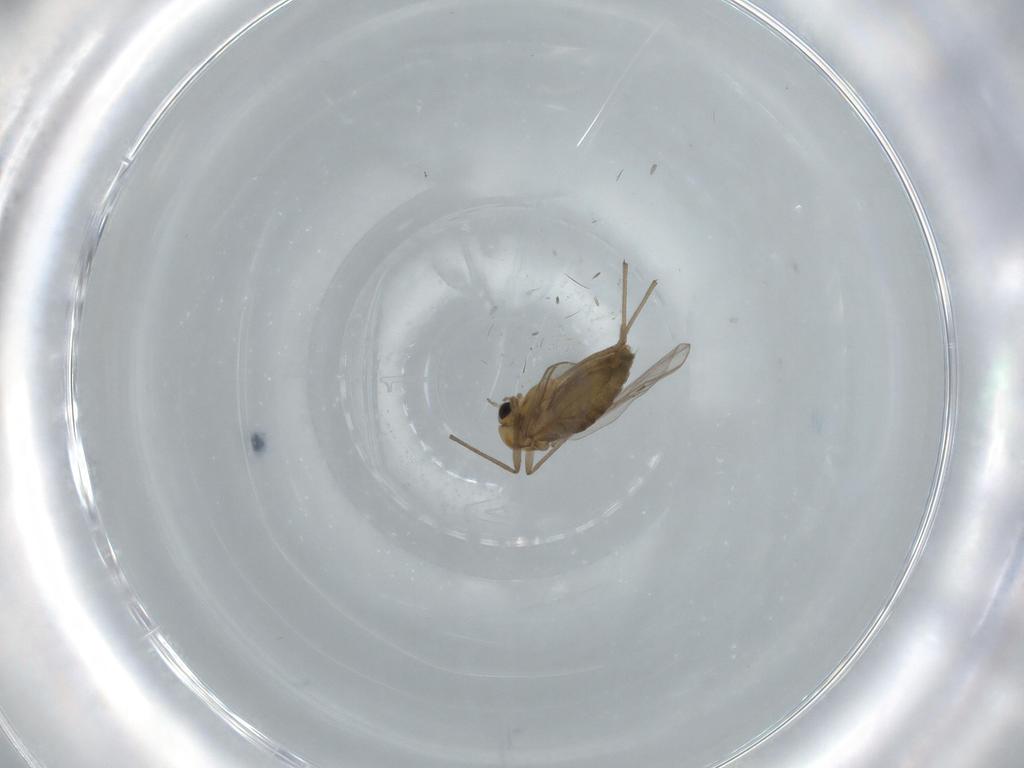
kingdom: Animalia
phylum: Arthropoda
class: Insecta
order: Diptera
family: Chironomidae
